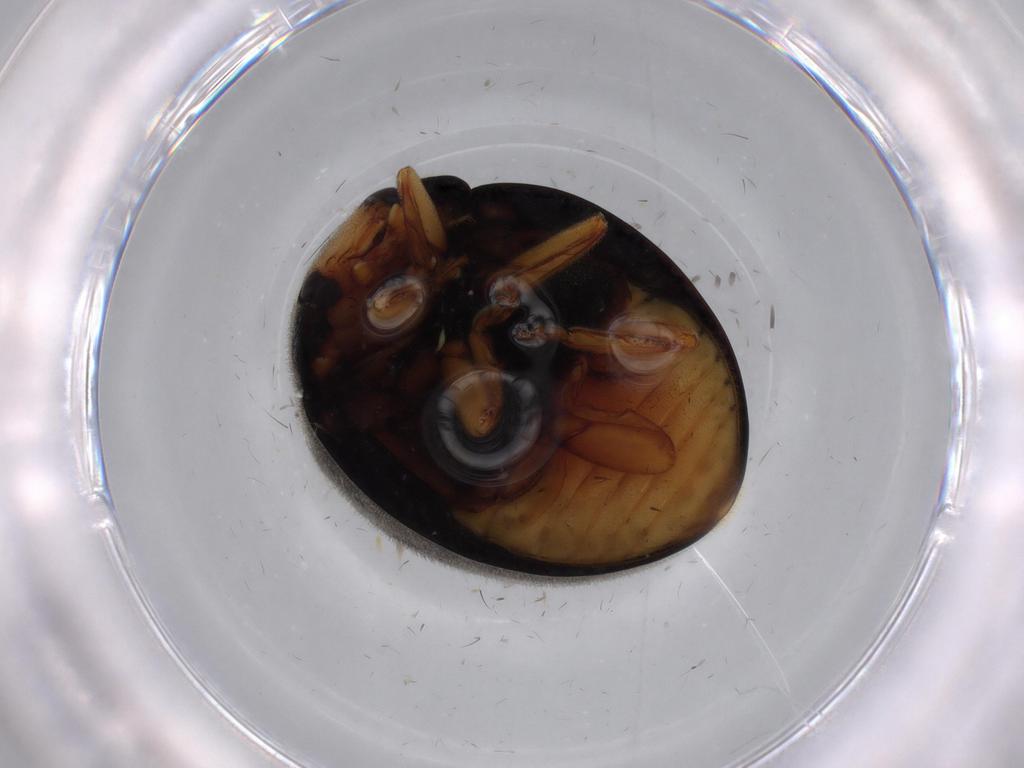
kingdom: Animalia
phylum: Arthropoda
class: Insecta
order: Coleoptera
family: Coccinellidae
